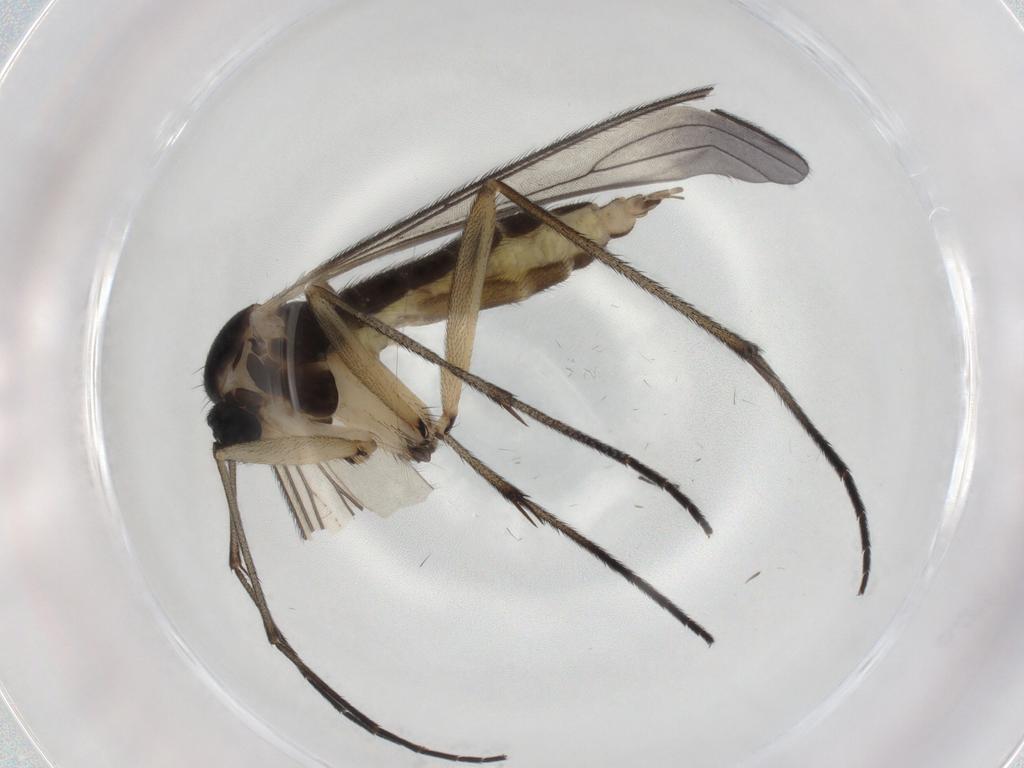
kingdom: Animalia
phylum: Arthropoda
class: Insecta
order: Diptera
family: Sciaridae
